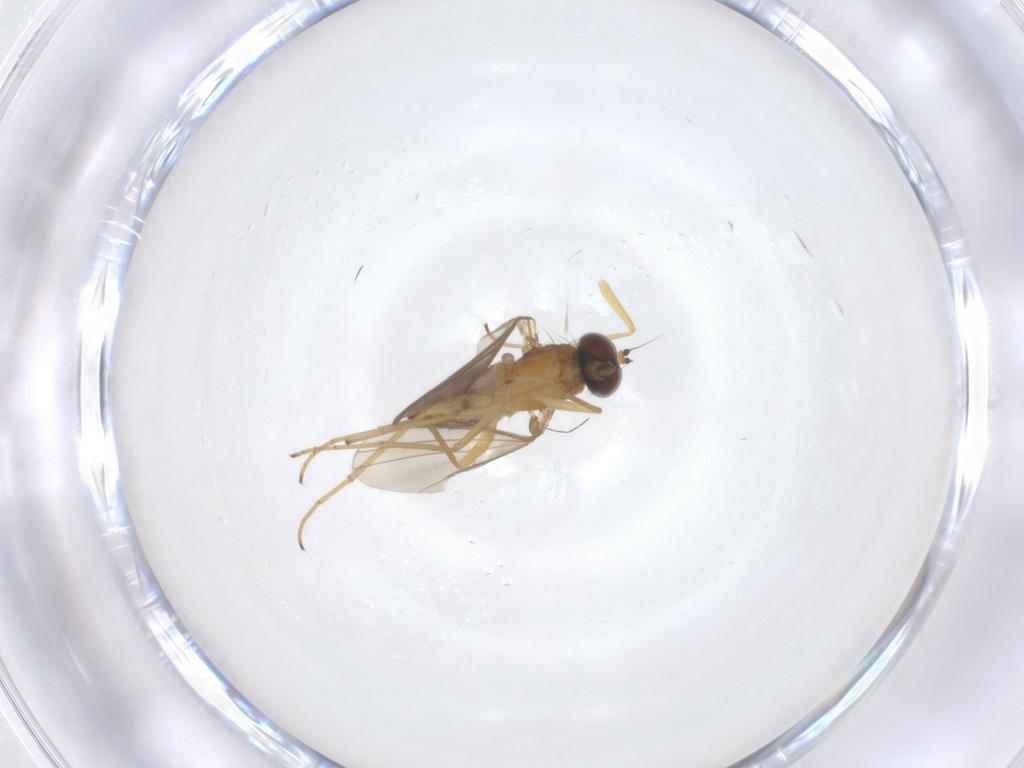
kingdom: Animalia
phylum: Arthropoda
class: Insecta
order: Diptera
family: Dolichopodidae
